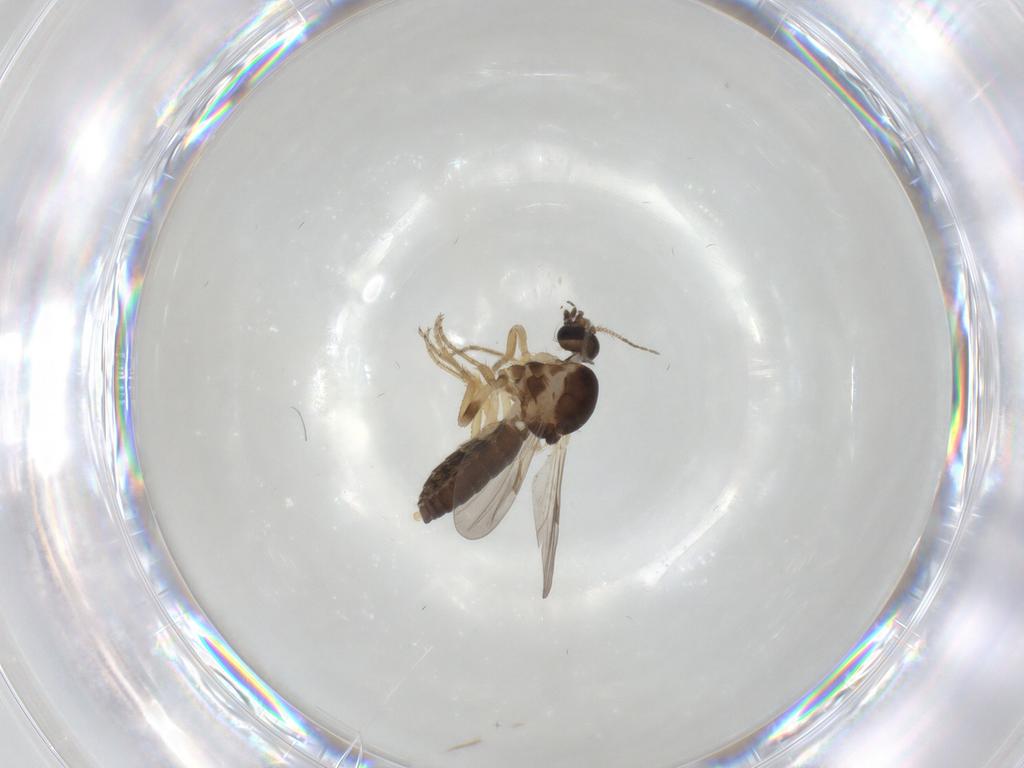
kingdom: Animalia
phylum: Arthropoda
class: Insecta
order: Diptera
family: Ceratopogonidae
